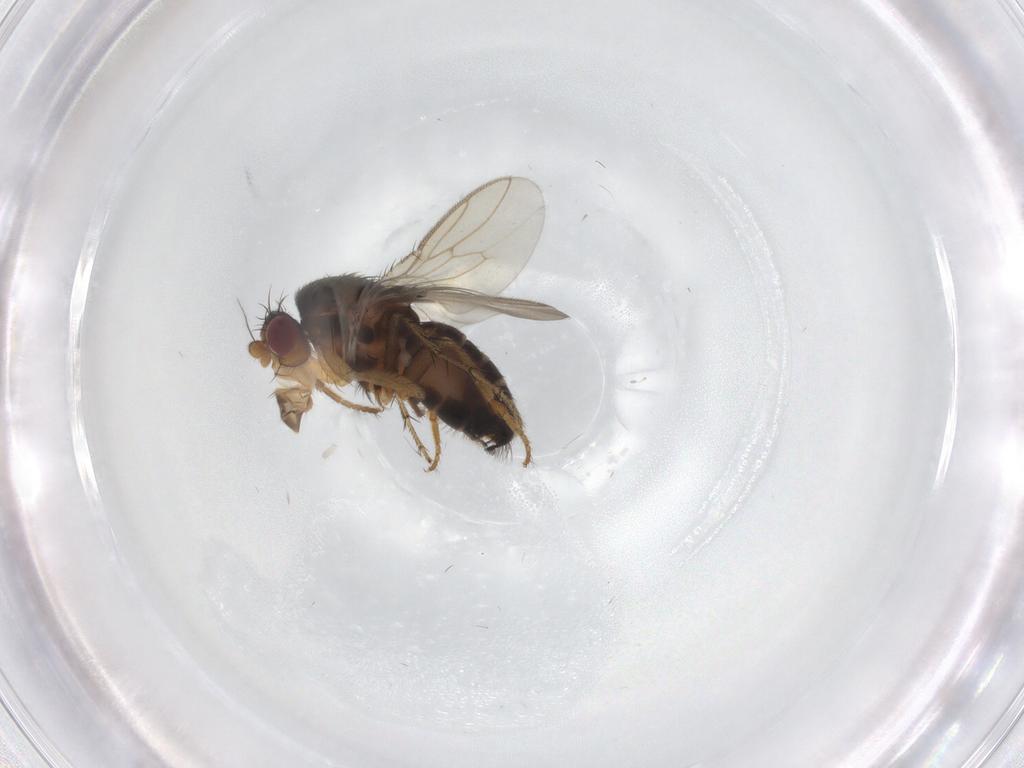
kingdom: Animalia
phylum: Arthropoda
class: Insecta
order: Diptera
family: Sphaeroceridae
